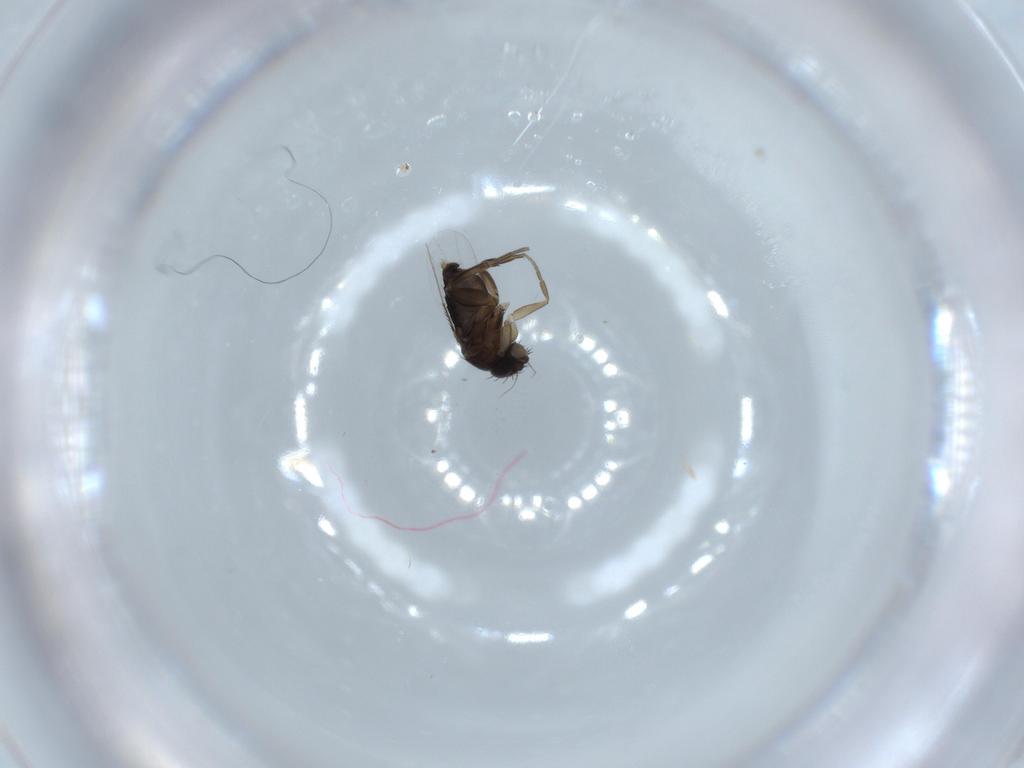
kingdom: Animalia
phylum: Arthropoda
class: Insecta
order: Diptera
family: Phoridae
